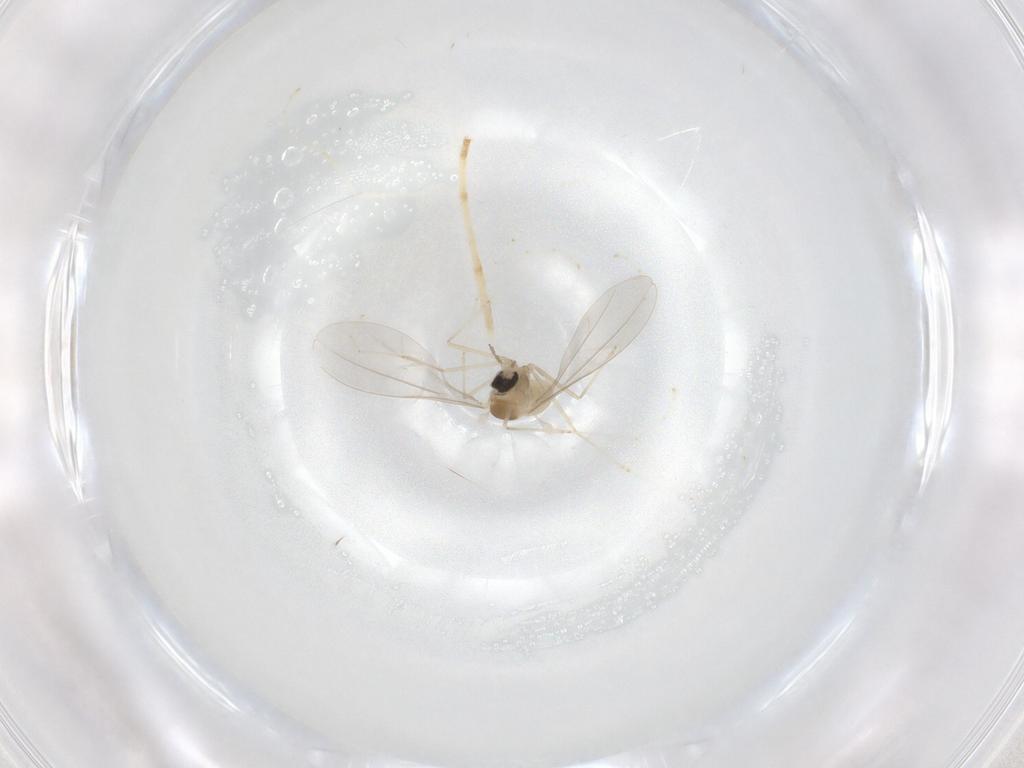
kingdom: Animalia
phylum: Arthropoda
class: Insecta
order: Diptera
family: Cecidomyiidae
